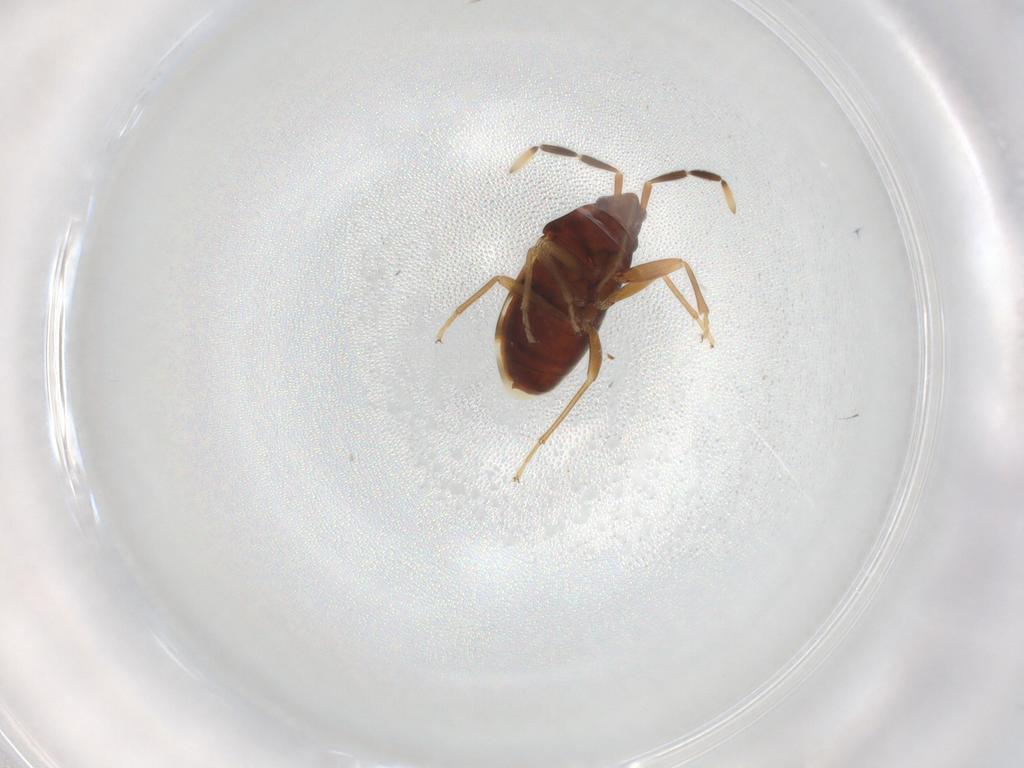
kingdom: Animalia
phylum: Arthropoda
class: Insecta
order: Hemiptera
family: Rhyparochromidae
